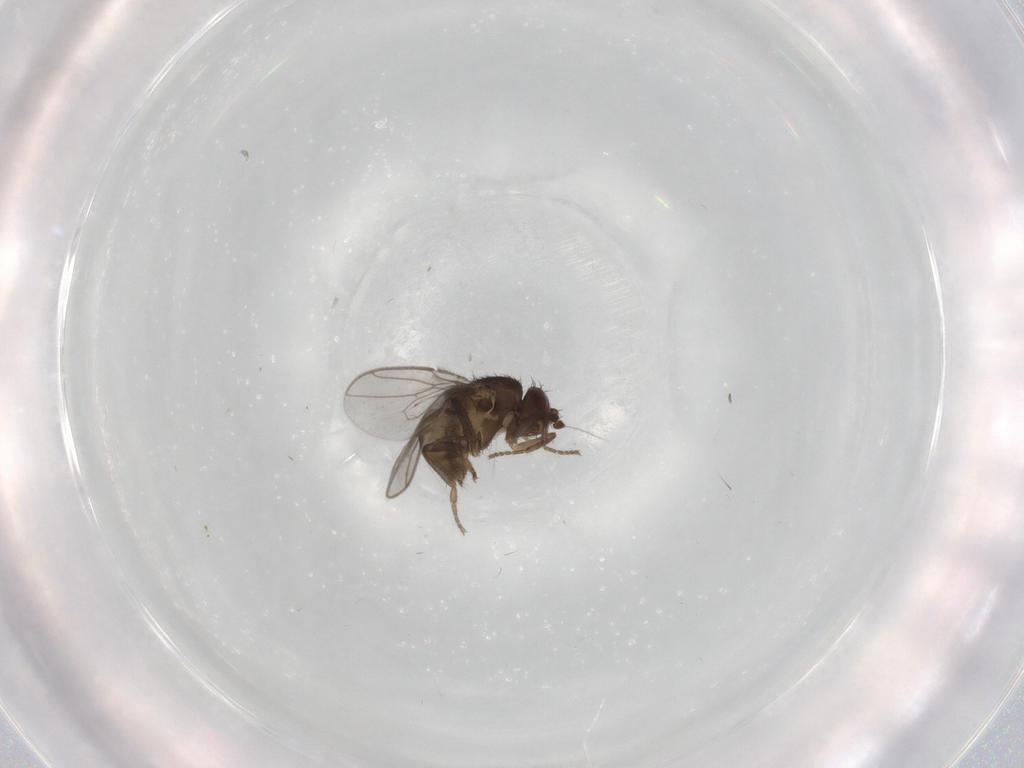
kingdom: Animalia
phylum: Arthropoda
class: Insecta
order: Diptera
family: Sphaeroceridae
